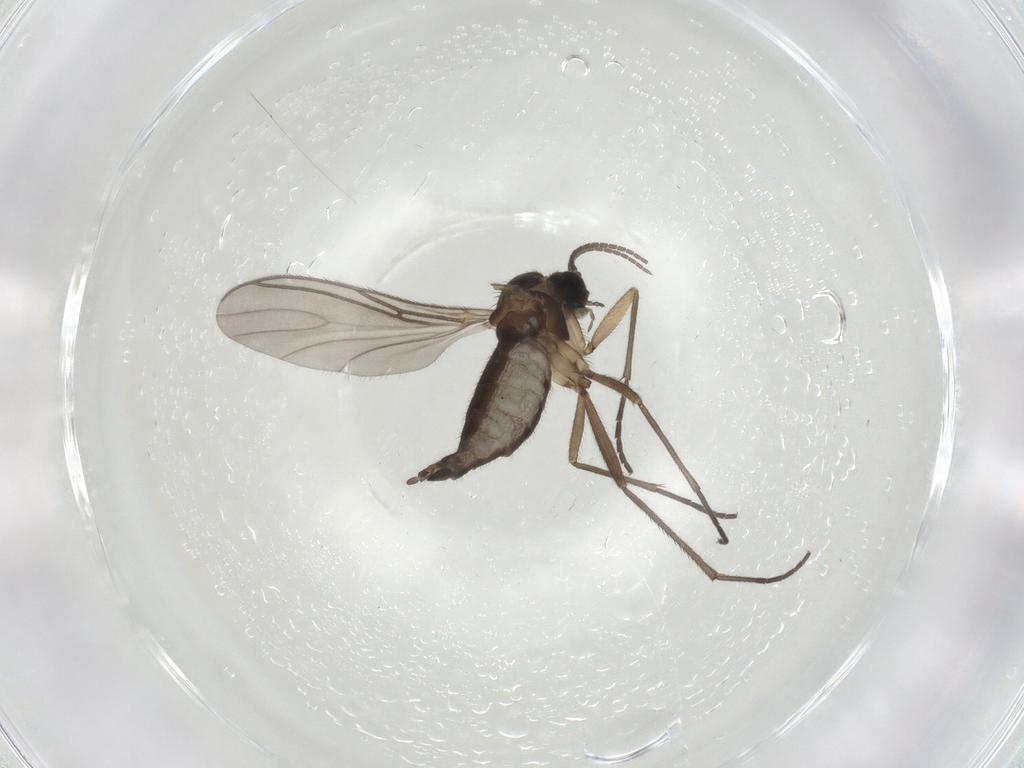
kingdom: Animalia
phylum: Arthropoda
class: Insecta
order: Diptera
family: Sciaridae
